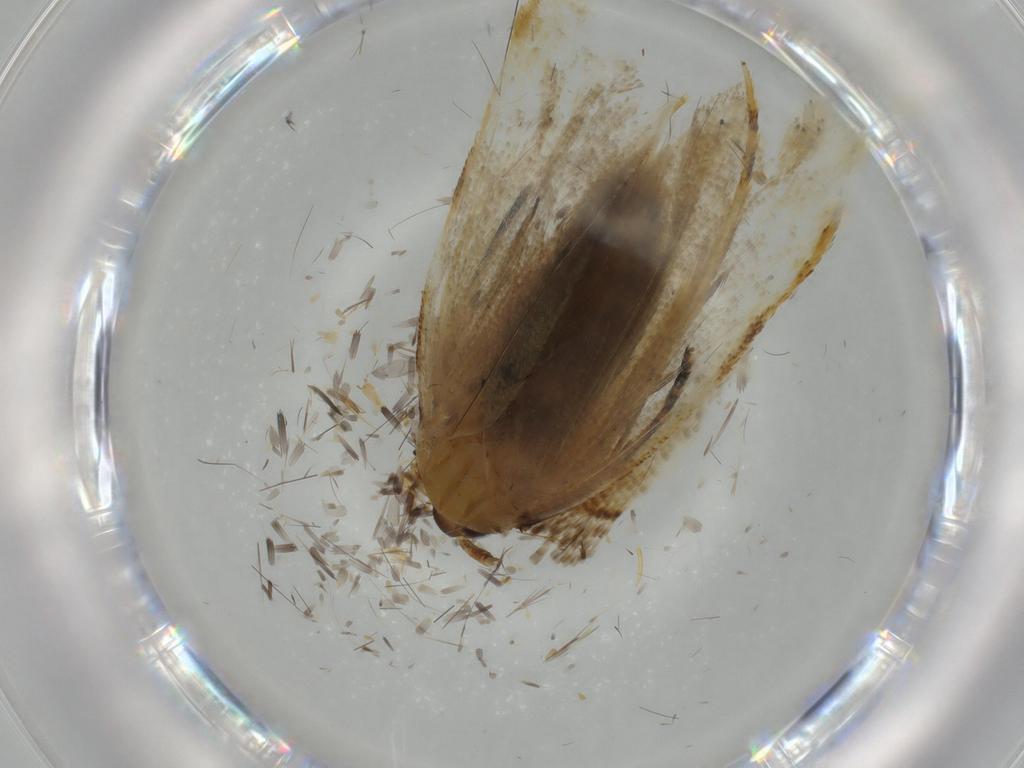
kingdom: Animalia
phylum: Arthropoda
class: Insecta
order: Lepidoptera
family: Lecithoceridae
